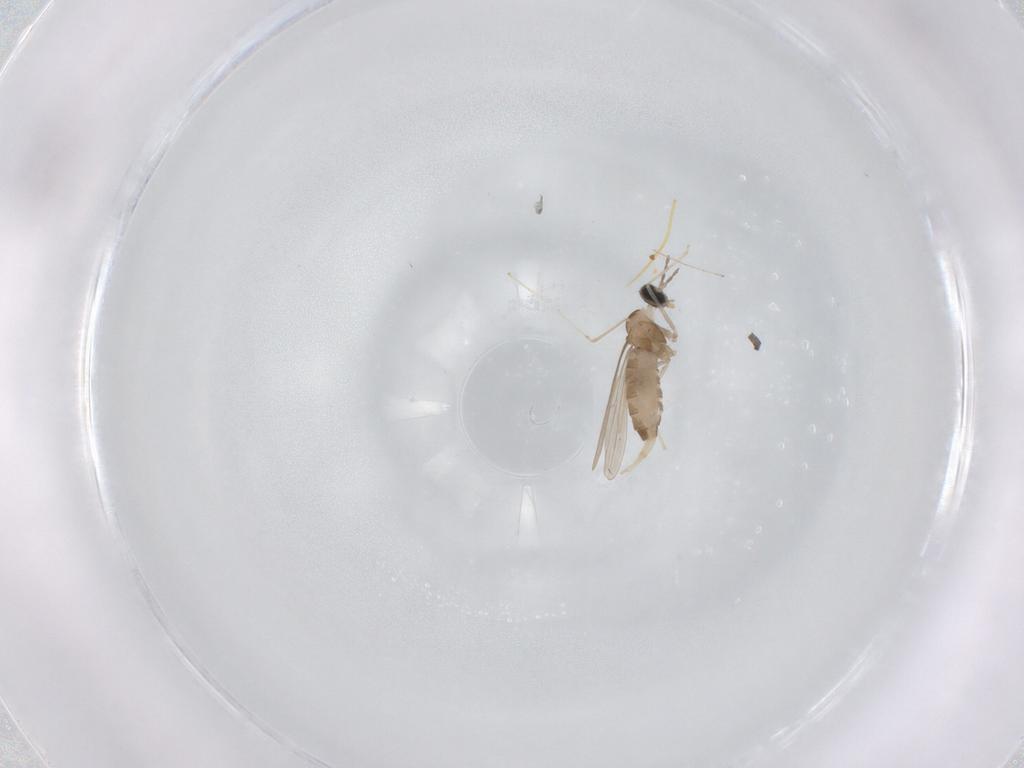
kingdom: Animalia
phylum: Arthropoda
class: Insecta
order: Diptera
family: Cecidomyiidae
